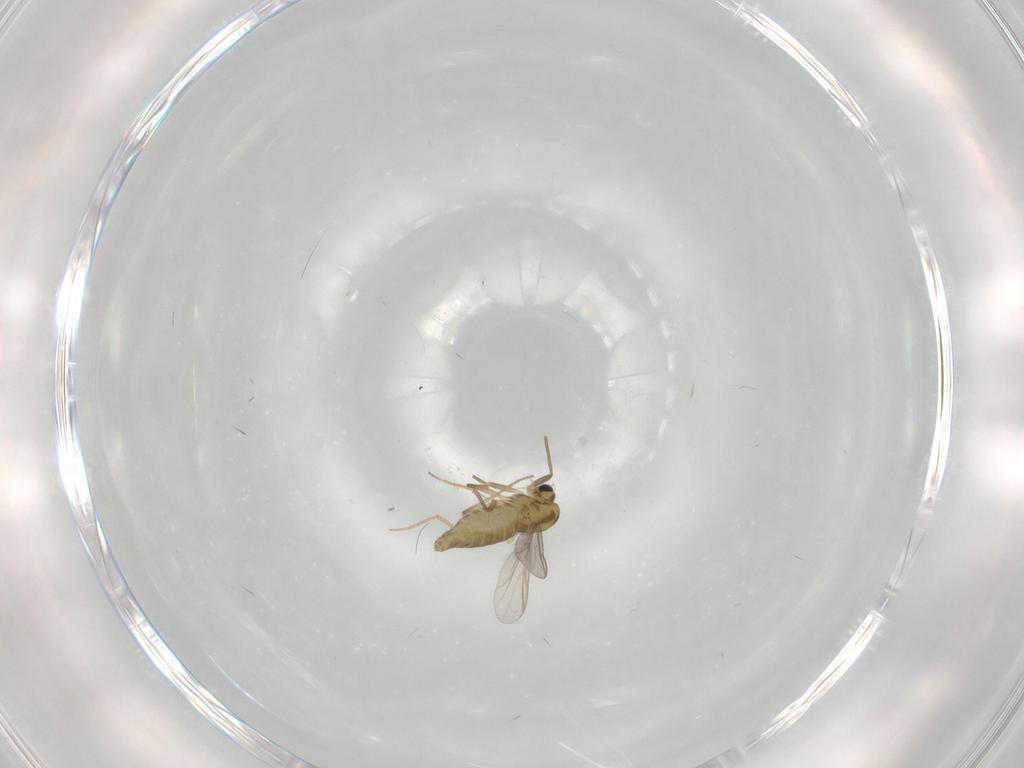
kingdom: Animalia
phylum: Arthropoda
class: Insecta
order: Diptera
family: Chironomidae
